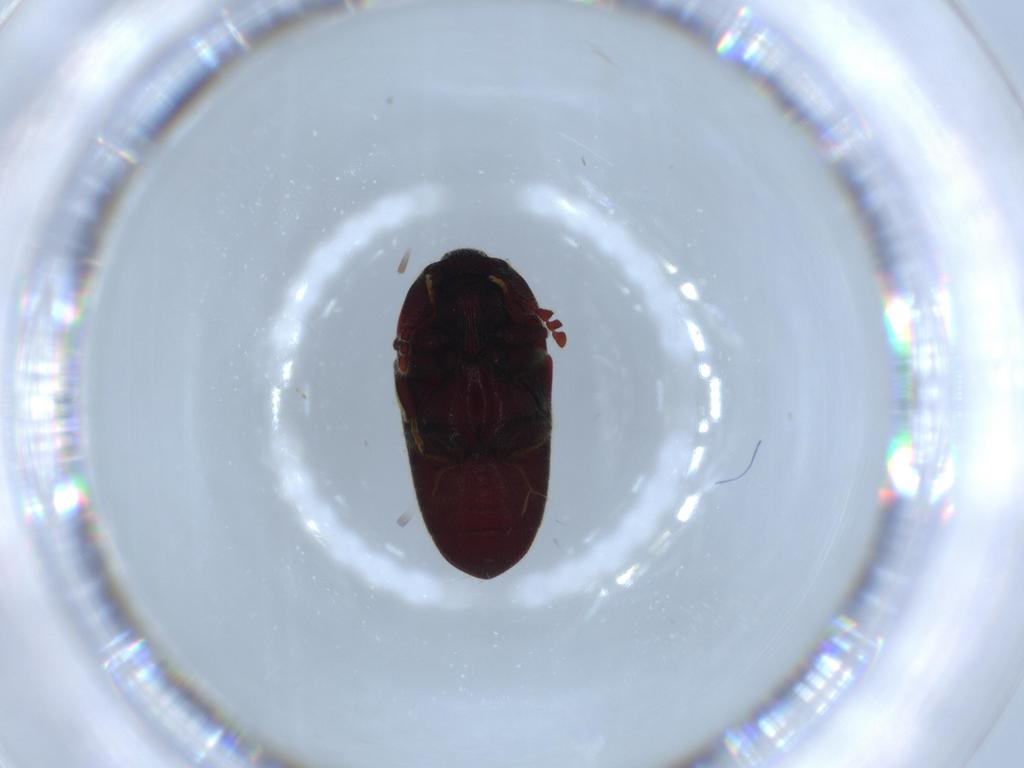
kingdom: Animalia
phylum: Arthropoda
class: Insecta
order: Coleoptera
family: Throscidae
